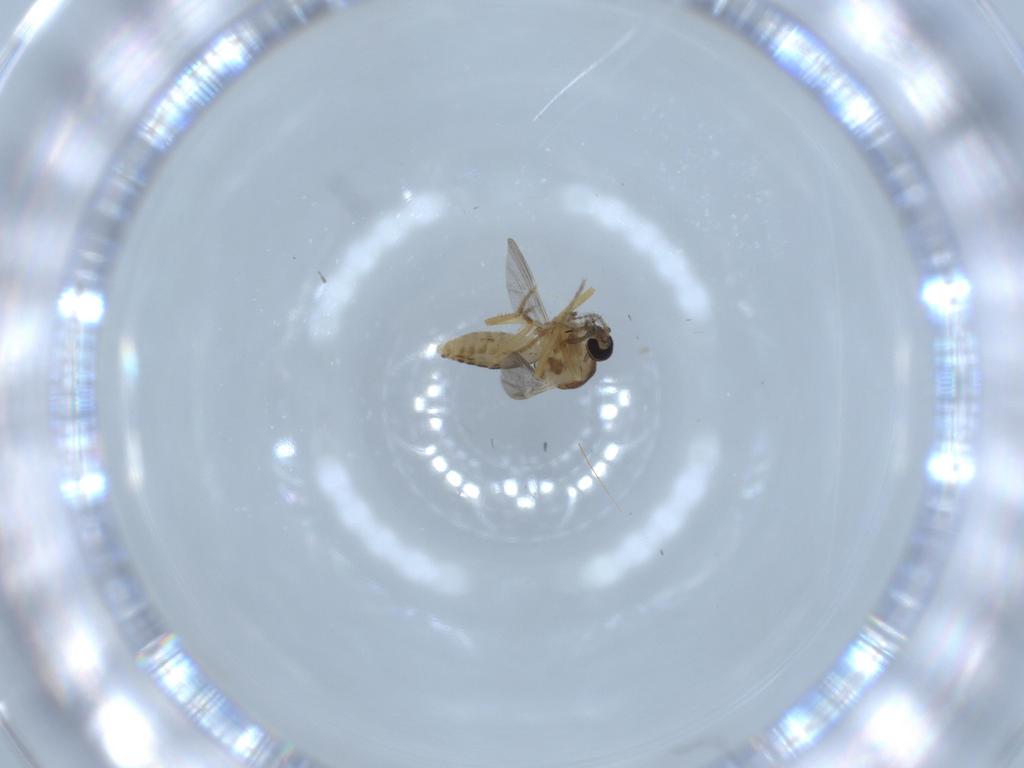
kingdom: Animalia
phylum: Arthropoda
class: Insecta
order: Diptera
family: Ceratopogonidae
